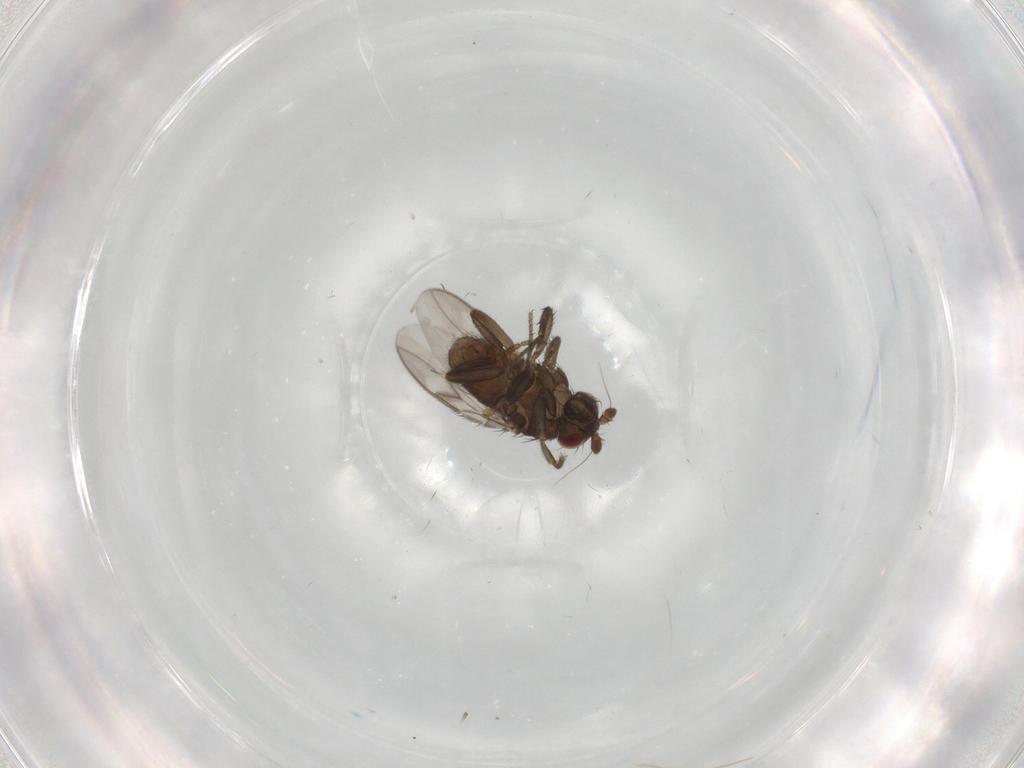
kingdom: Animalia
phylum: Arthropoda
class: Insecta
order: Diptera
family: Sphaeroceridae
